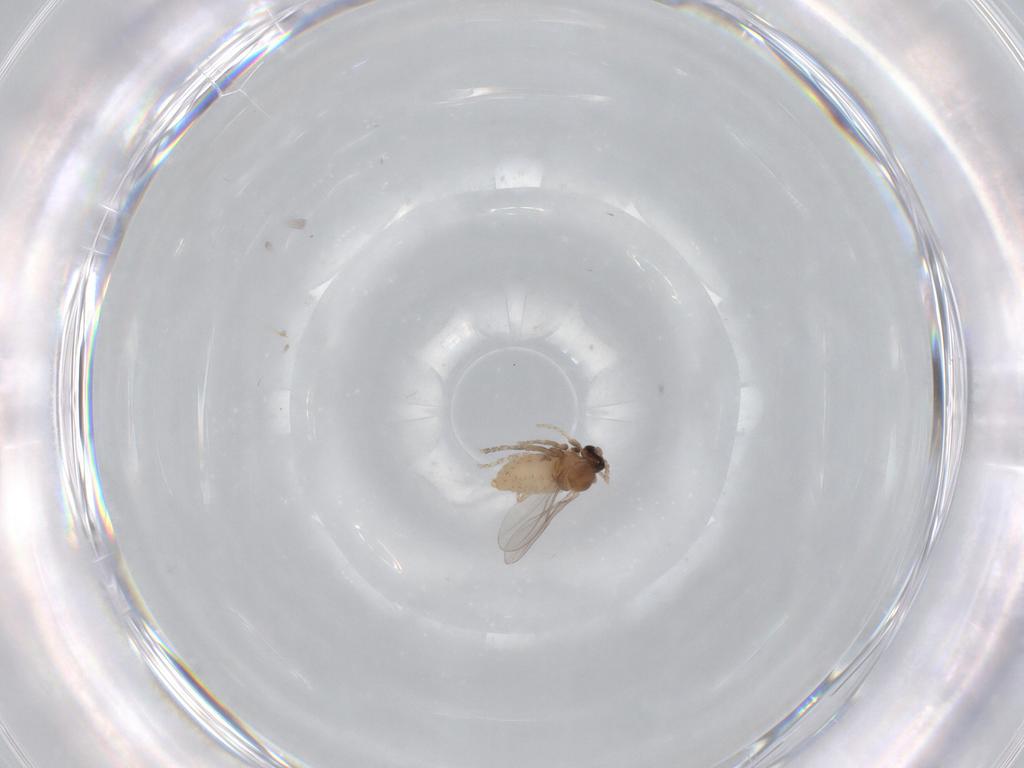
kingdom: Animalia
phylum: Arthropoda
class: Insecta
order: Diptera
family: Cecidomyiidae
